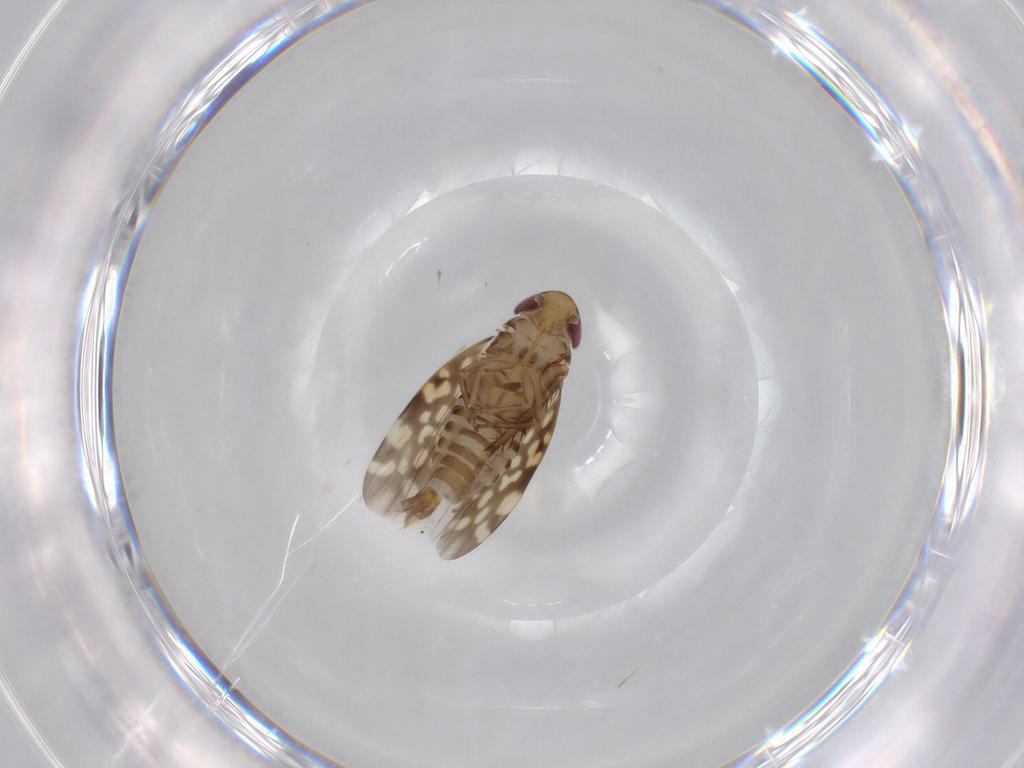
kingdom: Animalia
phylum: Arthropoda
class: Insecta
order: Hemiptera
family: Cicadellidae
